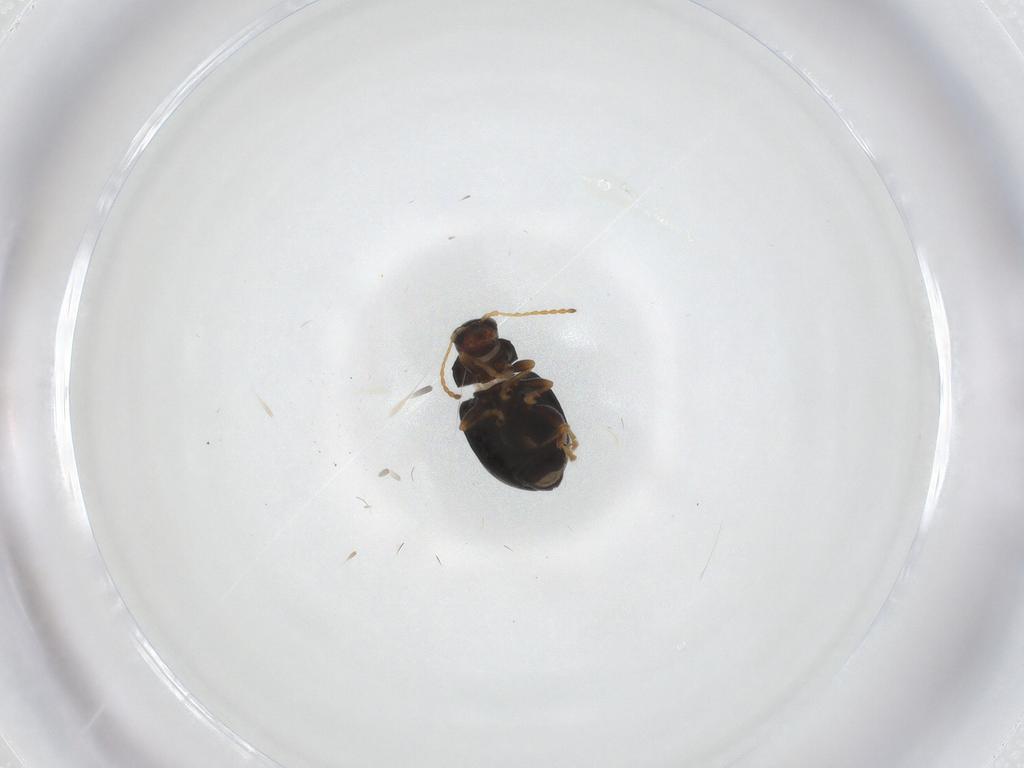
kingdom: Animalia
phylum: Arthropoda
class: Insecta
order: Coleoptera
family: Chrysomelidae
